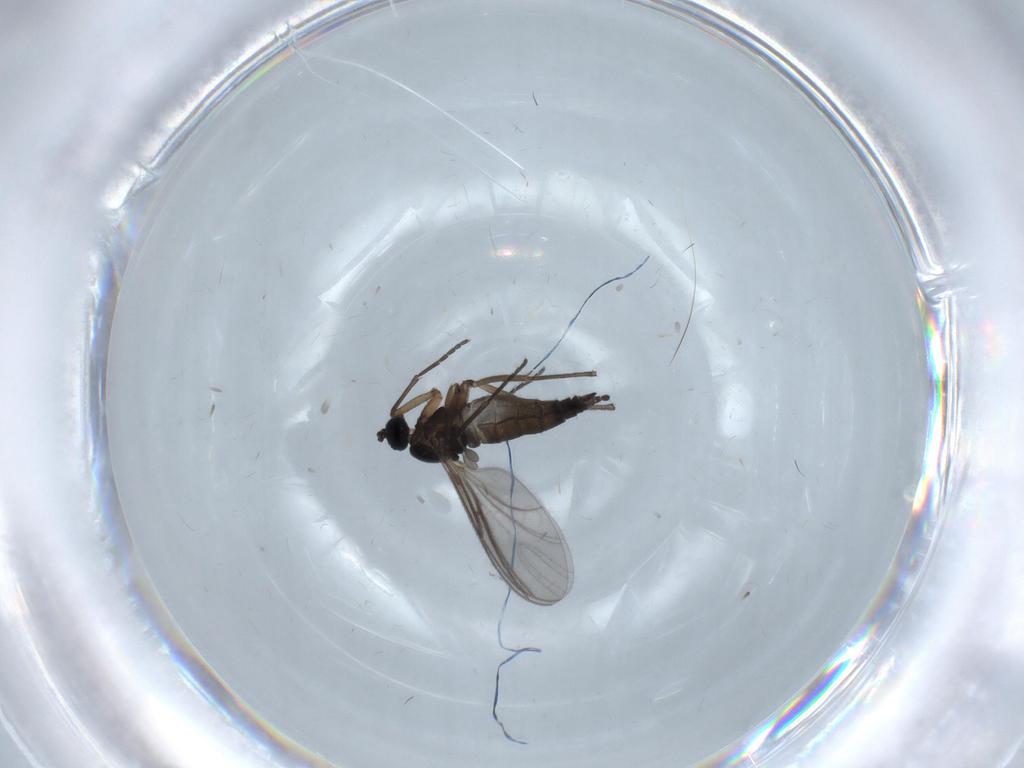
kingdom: Animalia
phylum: Arthropoda
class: Insecta
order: Diptera
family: Sciaridae
